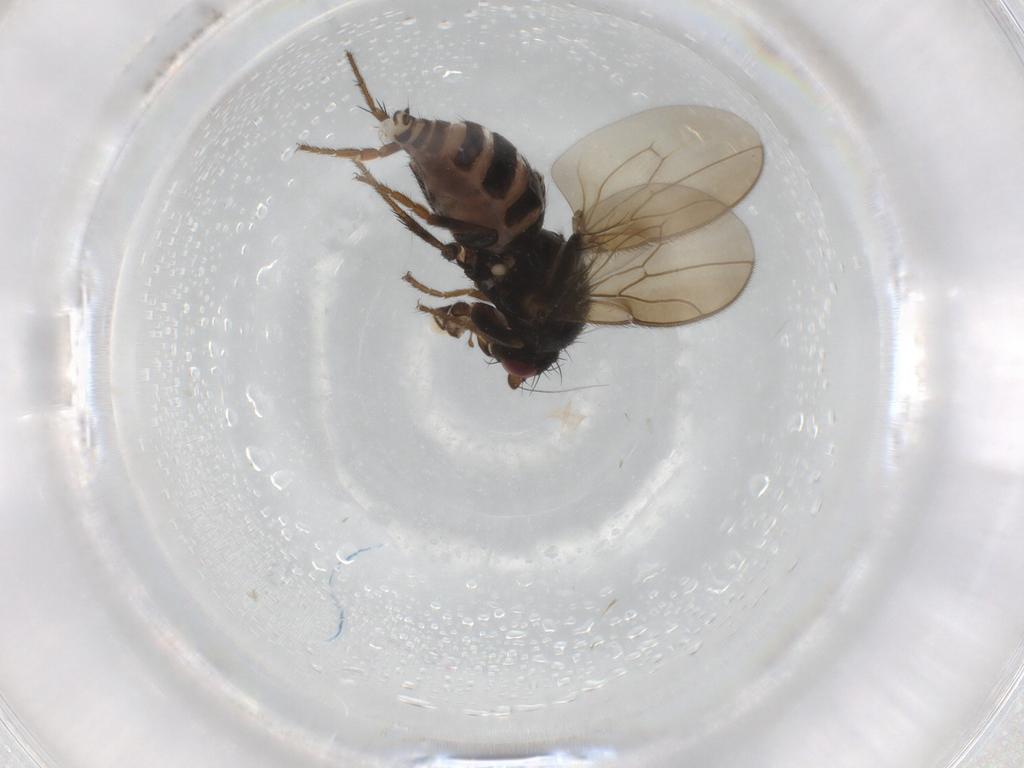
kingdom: Animalia
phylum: Arthropoda
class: Insecta
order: Diptera
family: Sphaeroceridae
